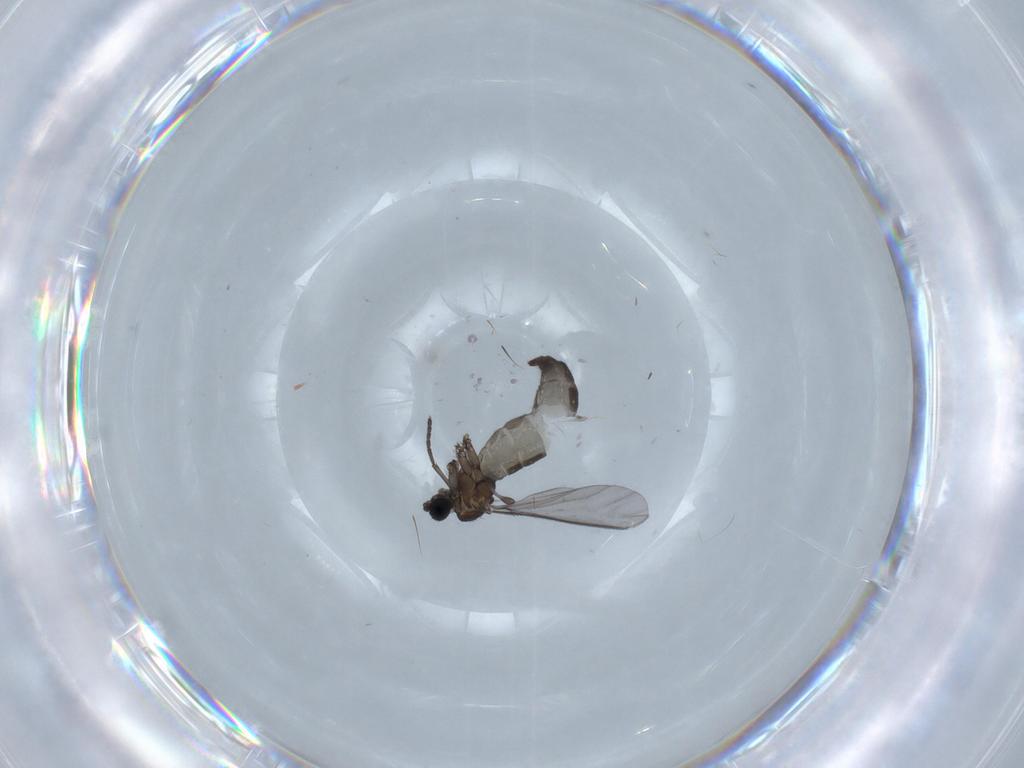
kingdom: Animalia
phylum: Arthropoda
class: Insecta
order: Diptera
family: Sciaridae
